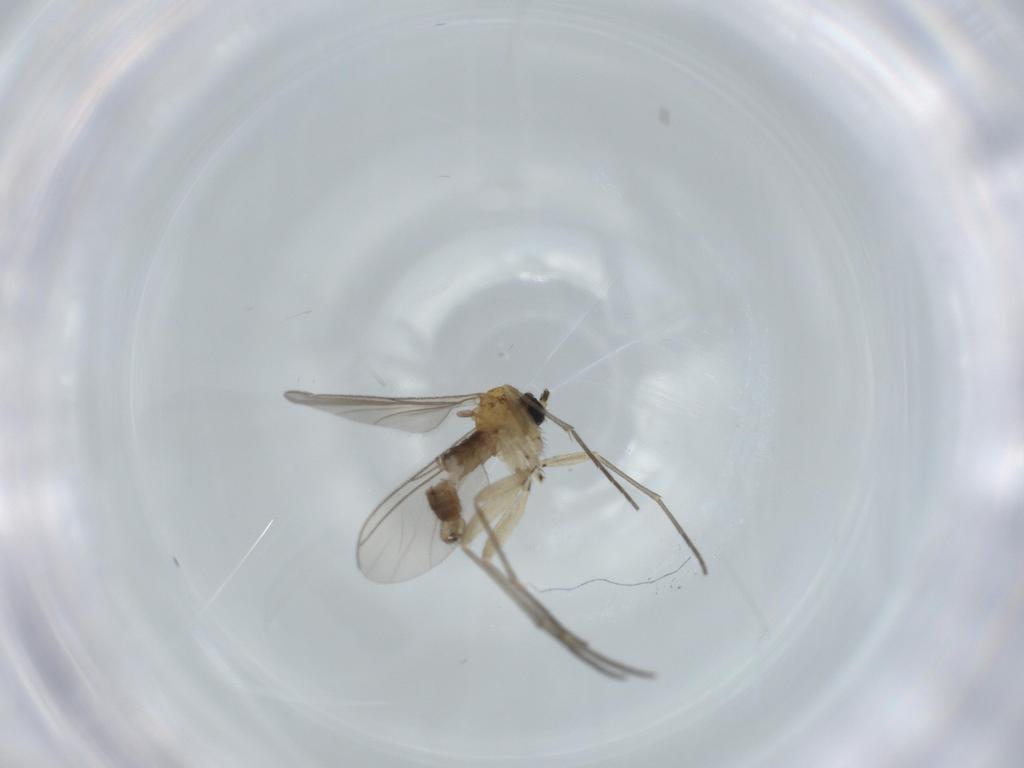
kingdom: Animalia
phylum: Arthropoda
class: Insecta
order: Diptera
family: Sciaridae
